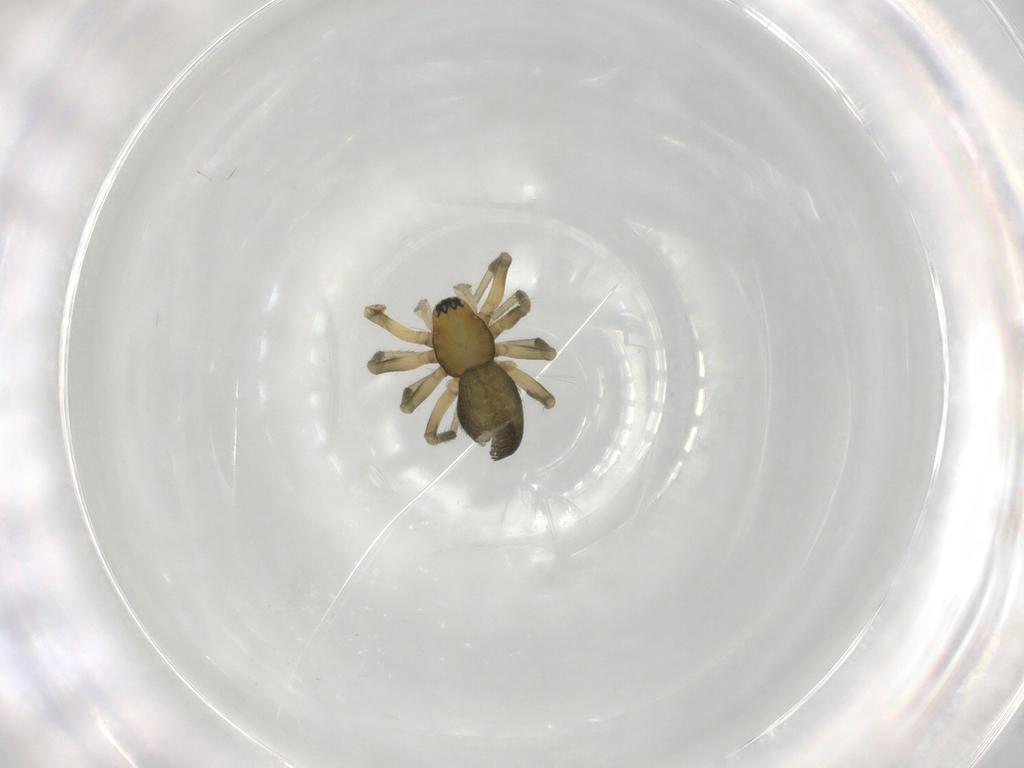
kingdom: Animalia
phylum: Arthropoda
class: Arachnida
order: Araneae
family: Linyphiidae
